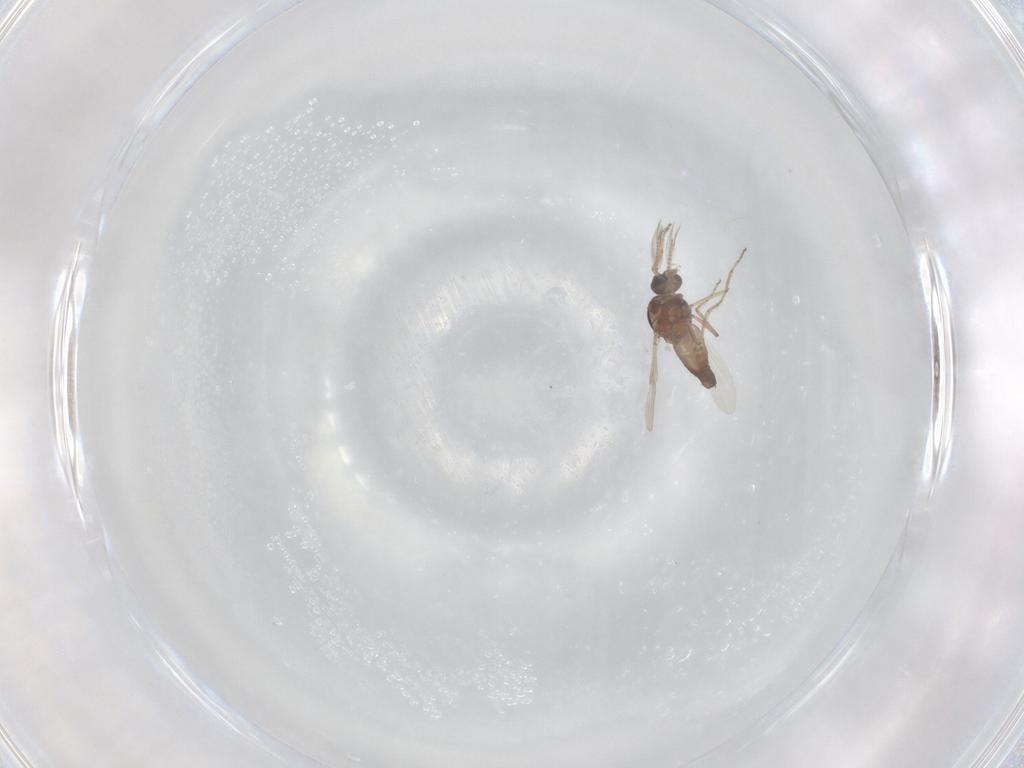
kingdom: Animalia
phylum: Arthropoda
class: Insecta
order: Diptera
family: Ceratopogonidae
